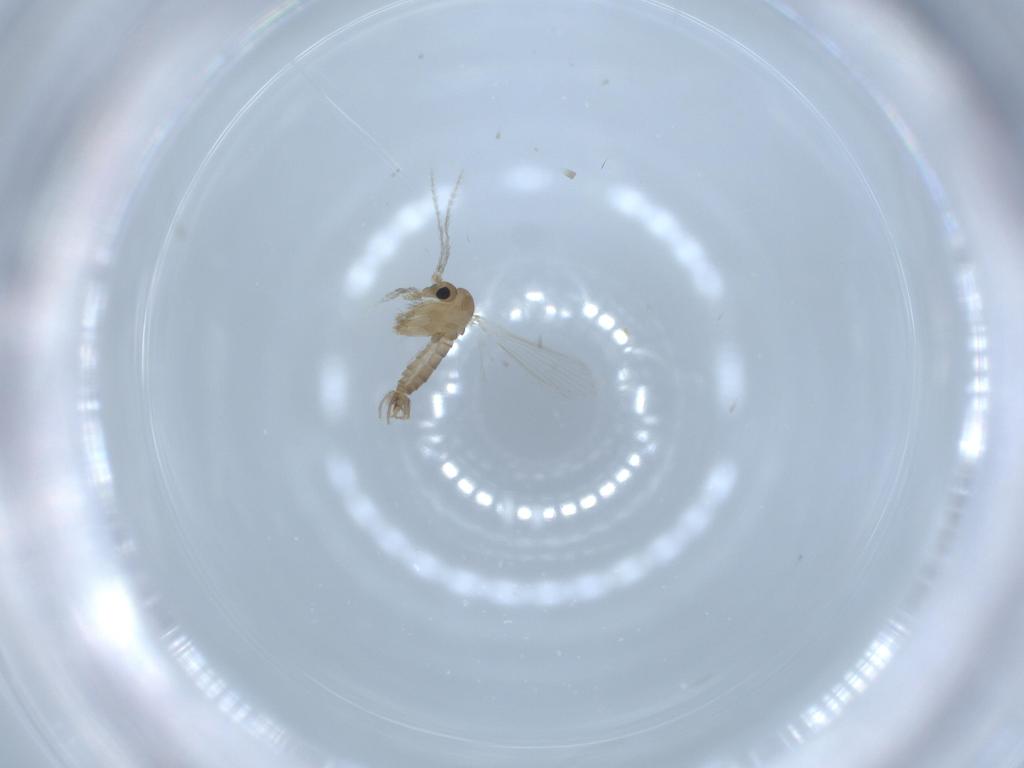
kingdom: Animalia
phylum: Arthropoda
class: Insecta
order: Diptera
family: Psychodidae
